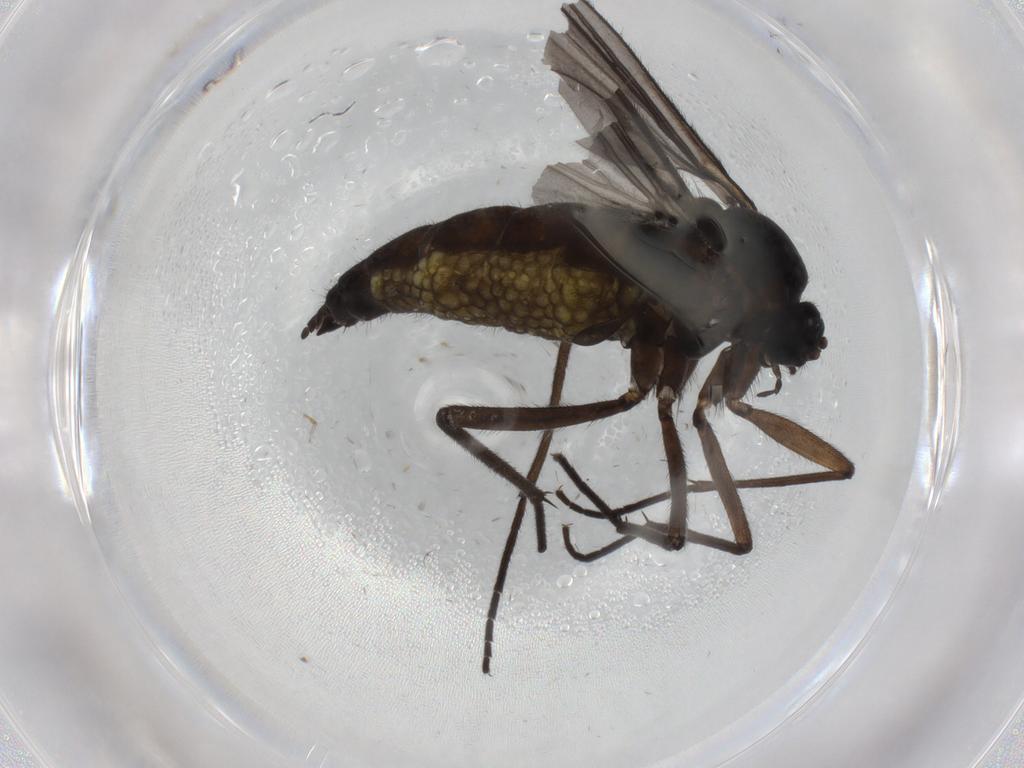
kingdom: Animalia
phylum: Arthropoda
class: Insecta
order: Diptera
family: Sciaridae
